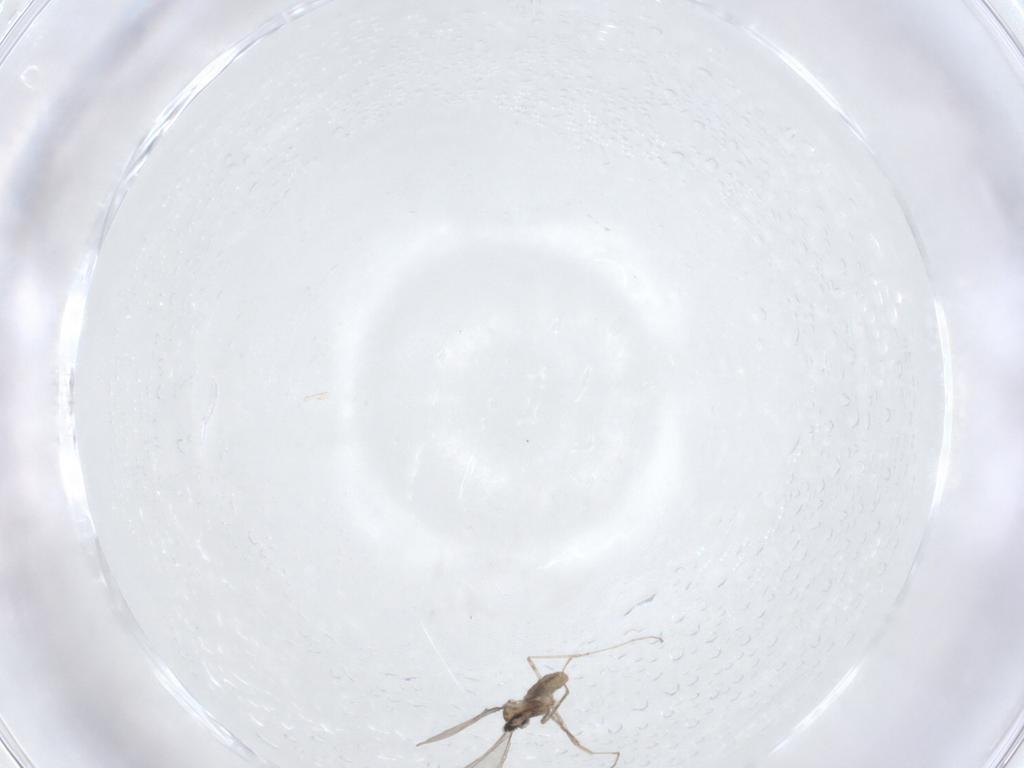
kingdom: Animalia
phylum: Arthropoda
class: Insecta
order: Diptera
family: Cecidomyiidae
